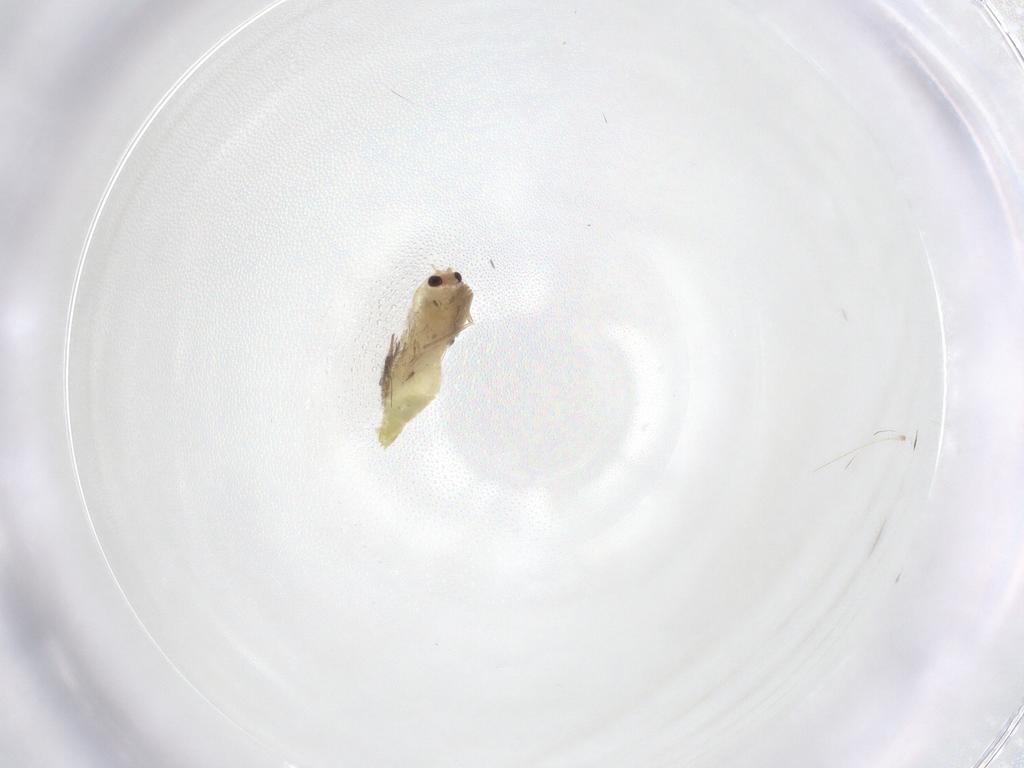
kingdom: Animalia
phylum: Arthropoda
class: Insecta
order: Diptera
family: Chironomidae
